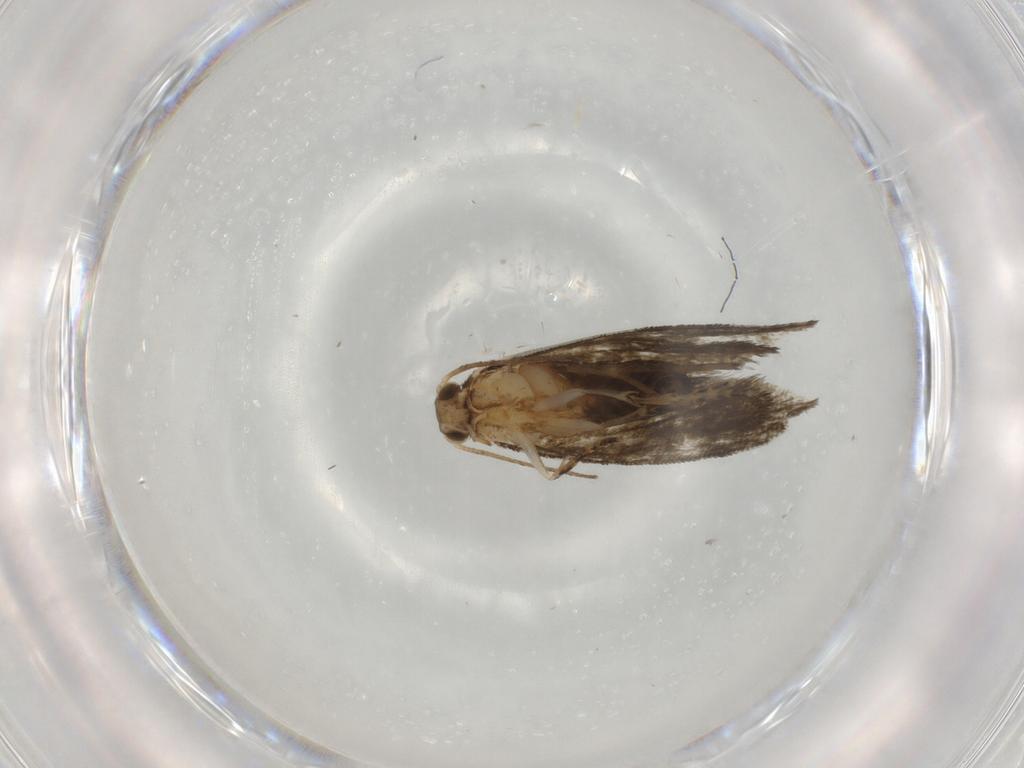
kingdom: Animalia
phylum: Arthropoda
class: Insecta
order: Lepidoptera
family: Crambidae
